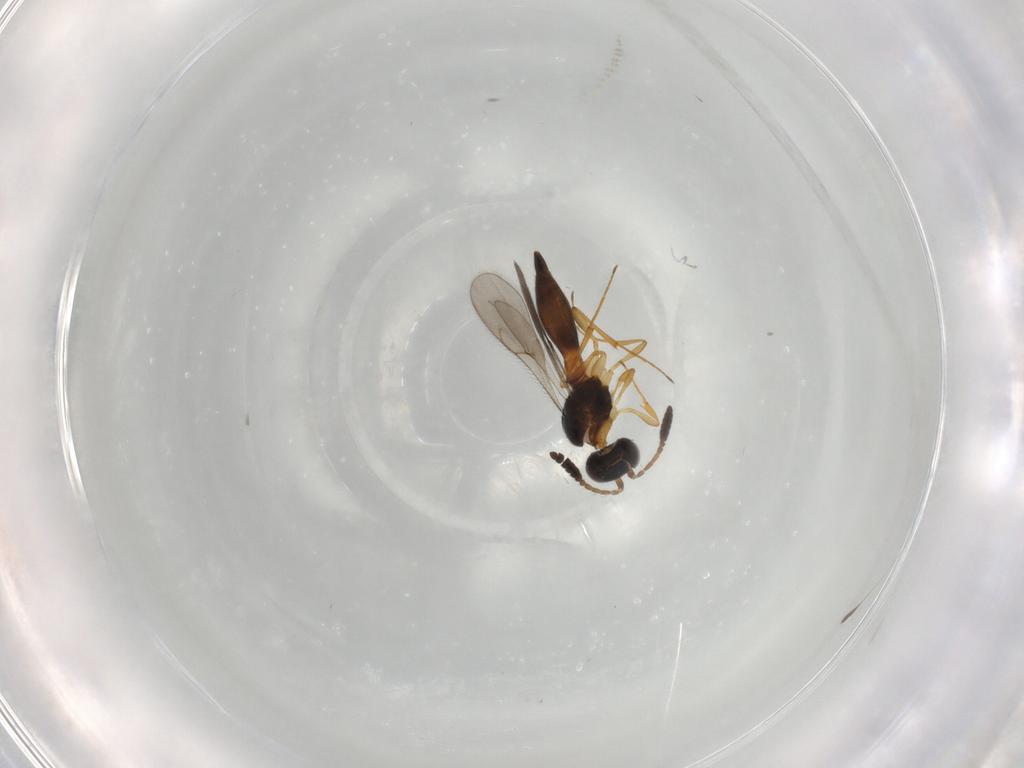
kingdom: Animalia
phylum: Arthropoda
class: Insecta
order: Hymenoptera
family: Scelionidae
